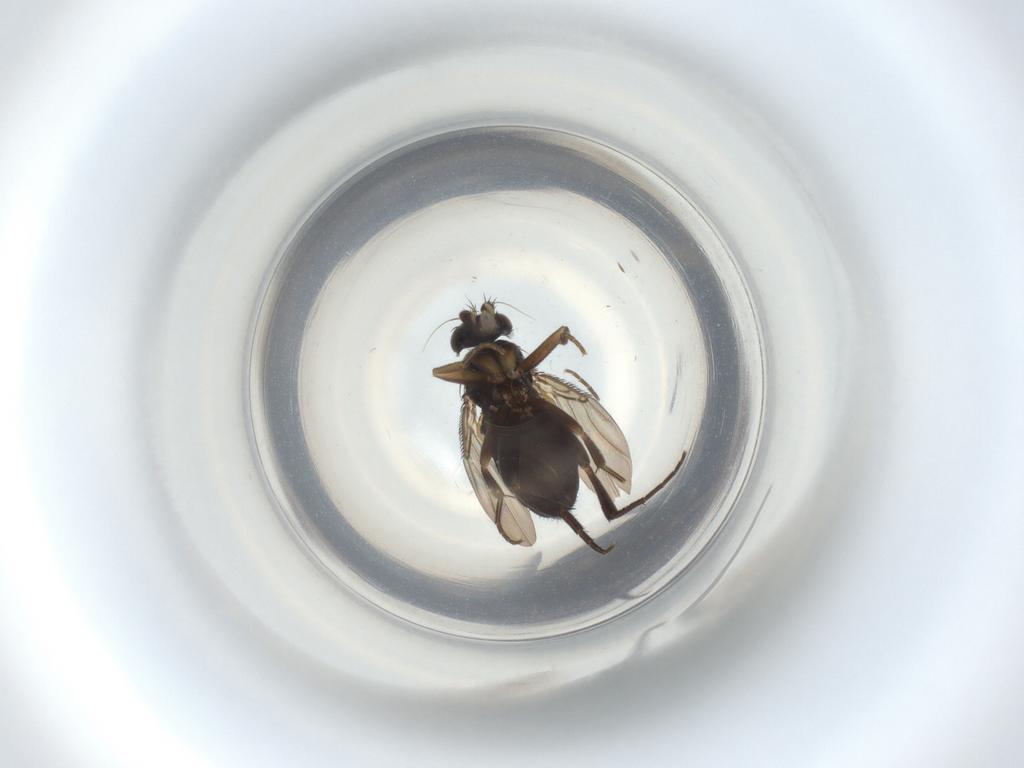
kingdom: Animalia
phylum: Arthropoda
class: Insecta
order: Diptera
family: Phoridae
